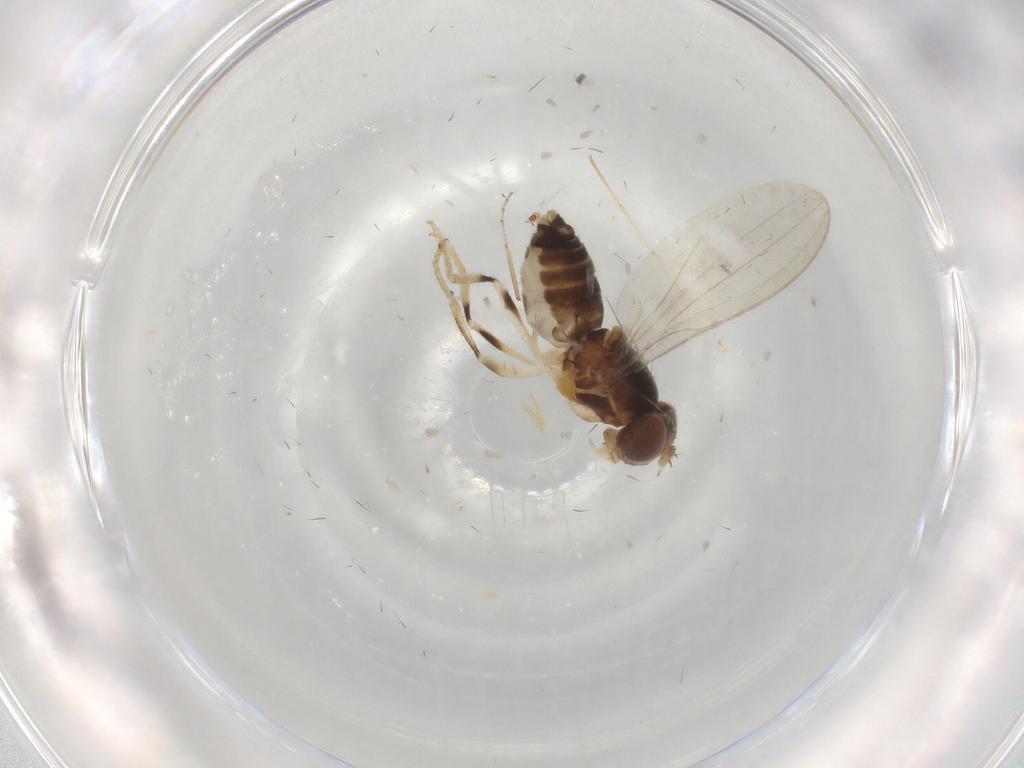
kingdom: Animalia
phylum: Arthropoda
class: Insecta
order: Diptera
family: Periscelididae
